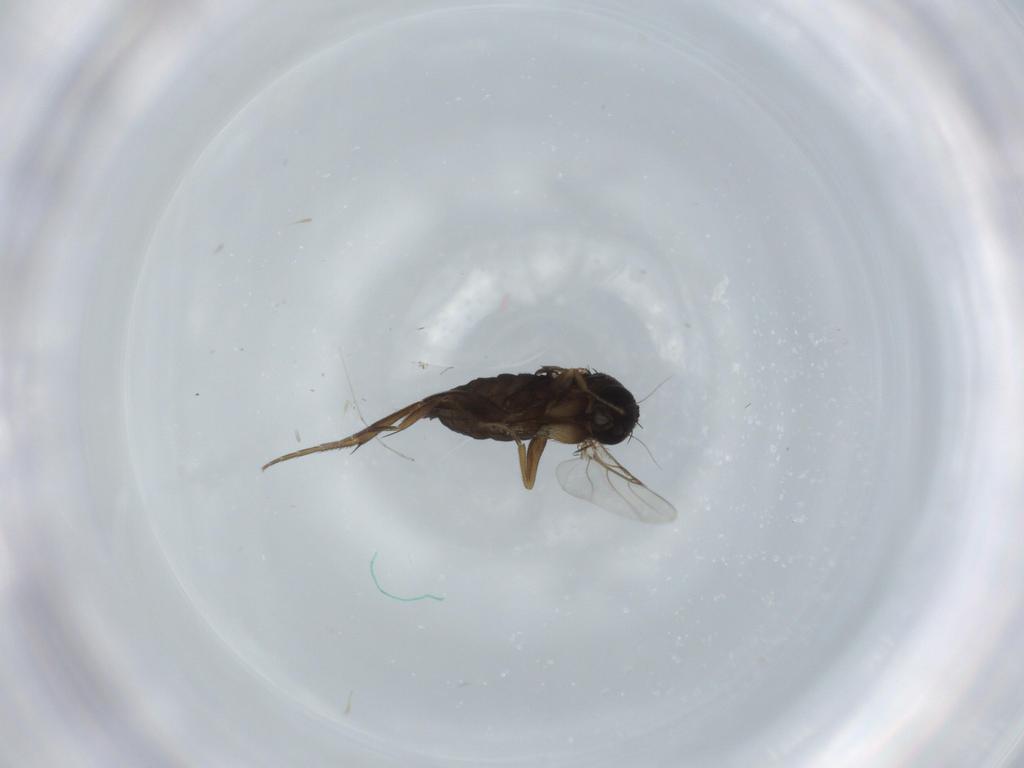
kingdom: Animalia
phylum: Arthropoda
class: Insecta
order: Diptera
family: Phoridae
